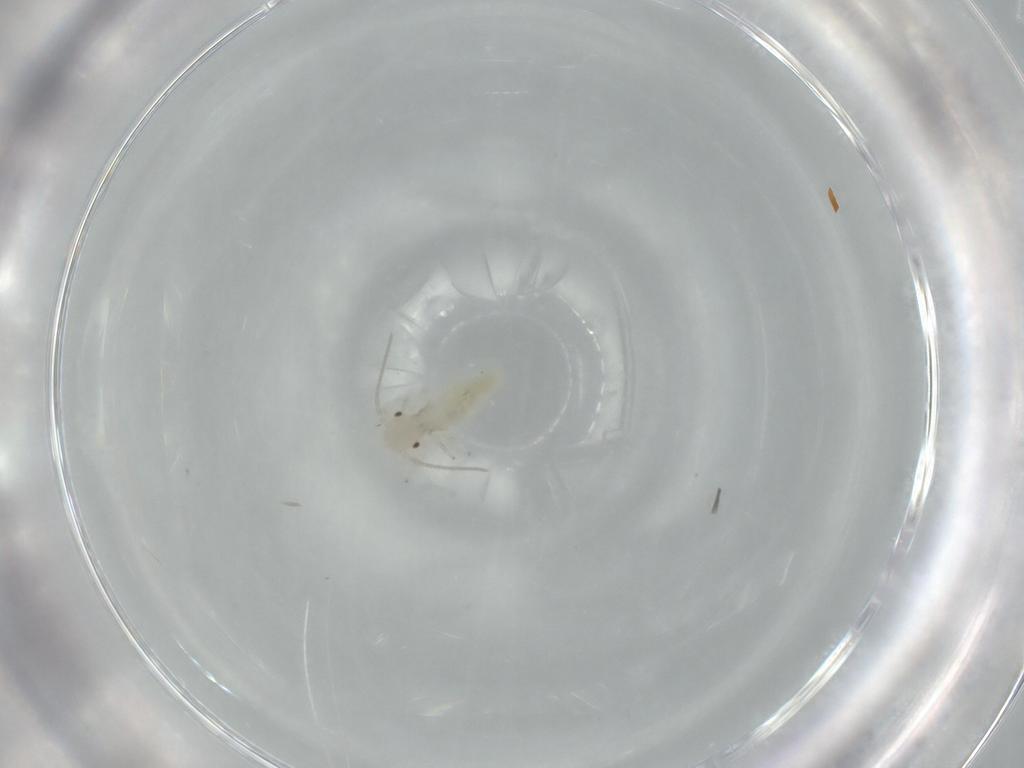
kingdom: Animalia
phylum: Arthropoda
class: Insecta
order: Psocodea
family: Caeciliusidae
